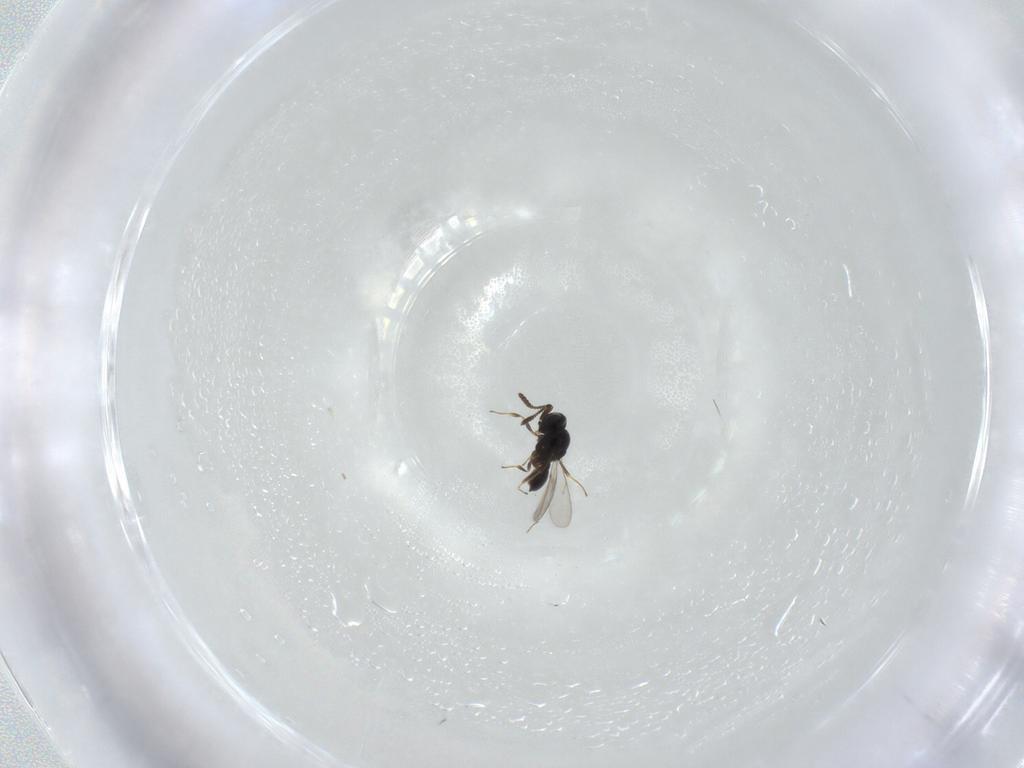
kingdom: Animalia
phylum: Arthropoda
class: Insecta
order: Hymenoptera
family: Scelionidae
